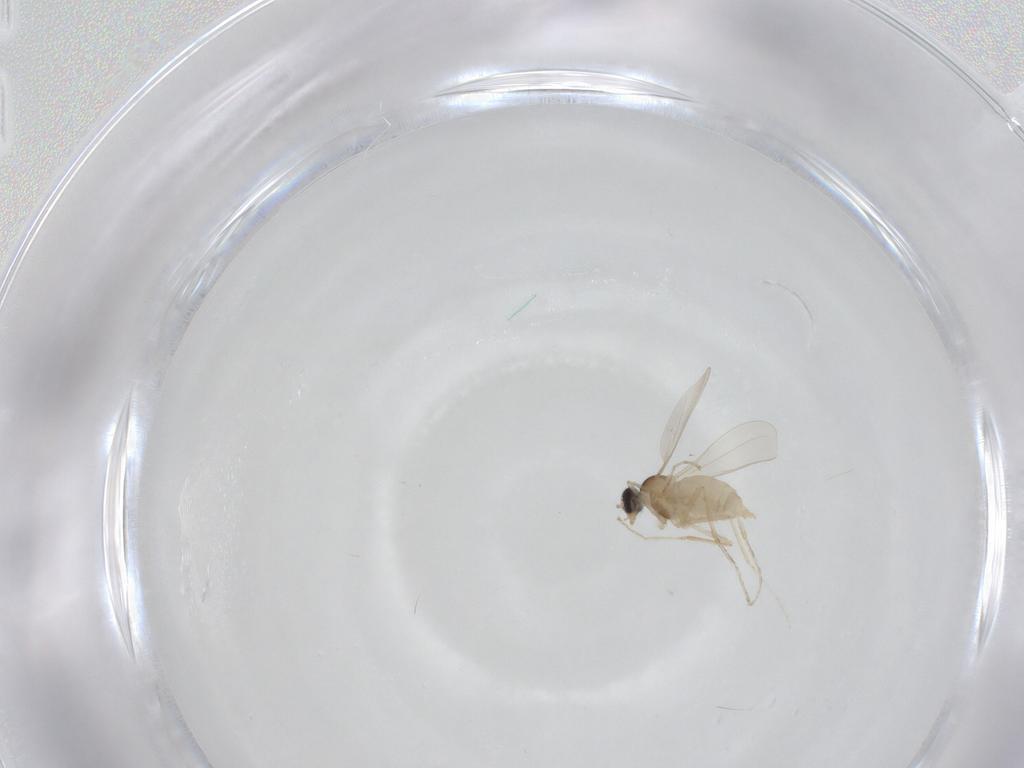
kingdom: Animalia
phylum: Arthropoda
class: Insecta
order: Diptera
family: Cecidomyiidae
